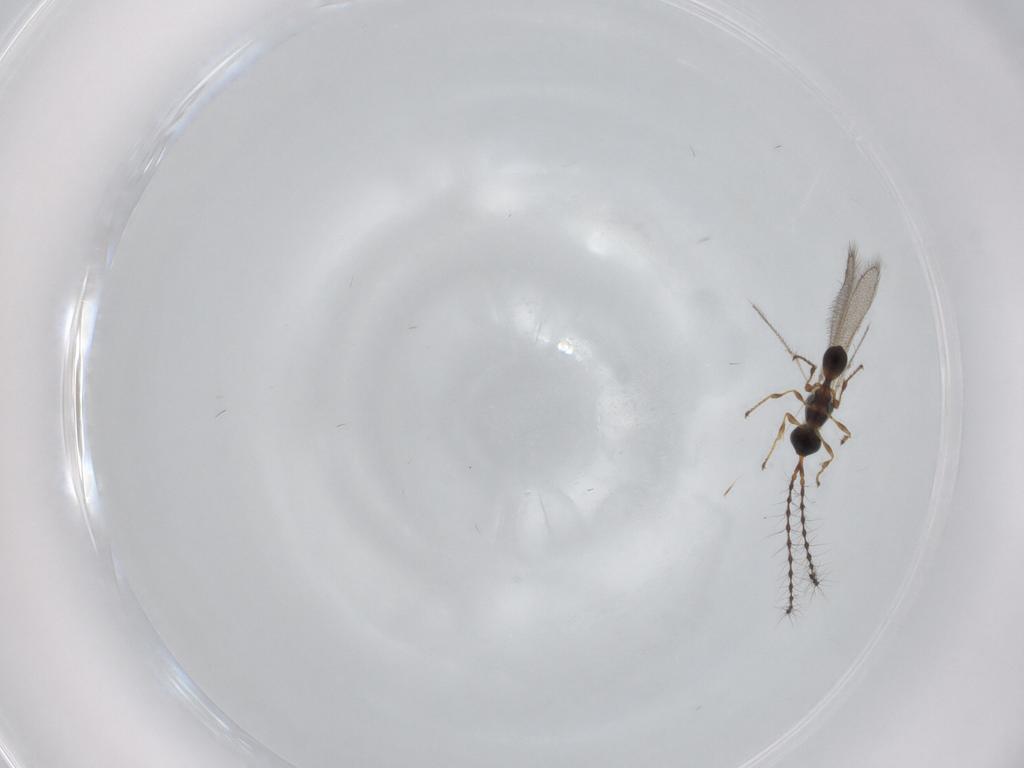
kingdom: Animalia
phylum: Arthropoda
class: Insecta
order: Hymenoptera
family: Diapriidae
